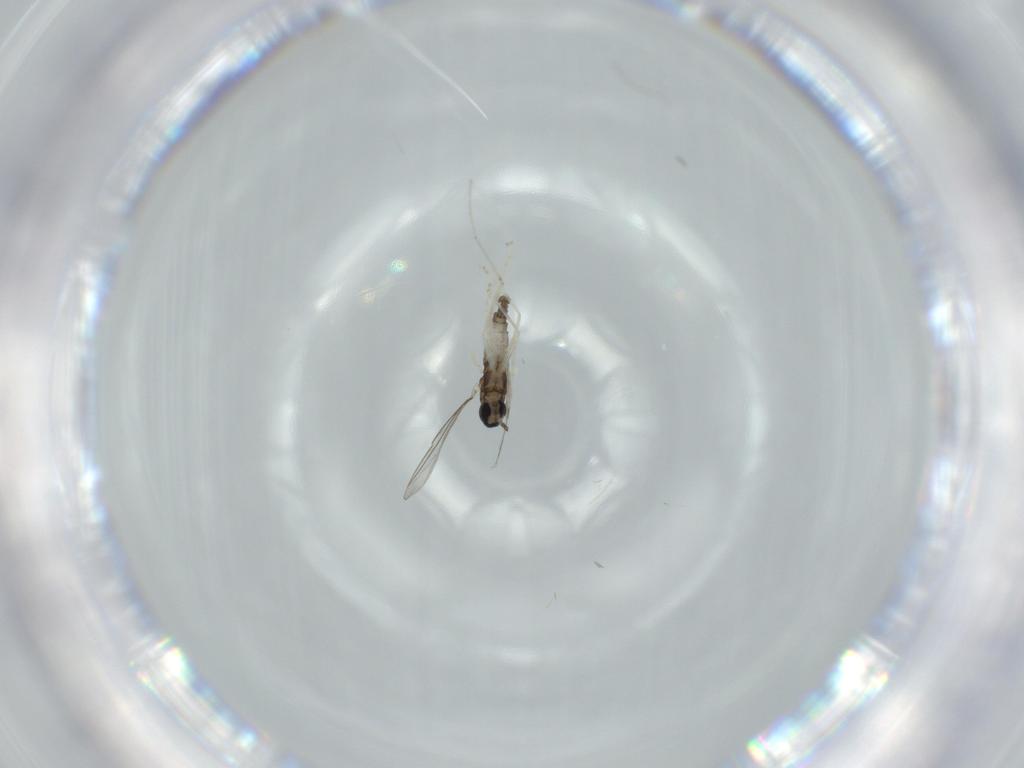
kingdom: Animalia
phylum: Arthropoda
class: Insecta
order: Diptera
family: Cecidomyiidae
